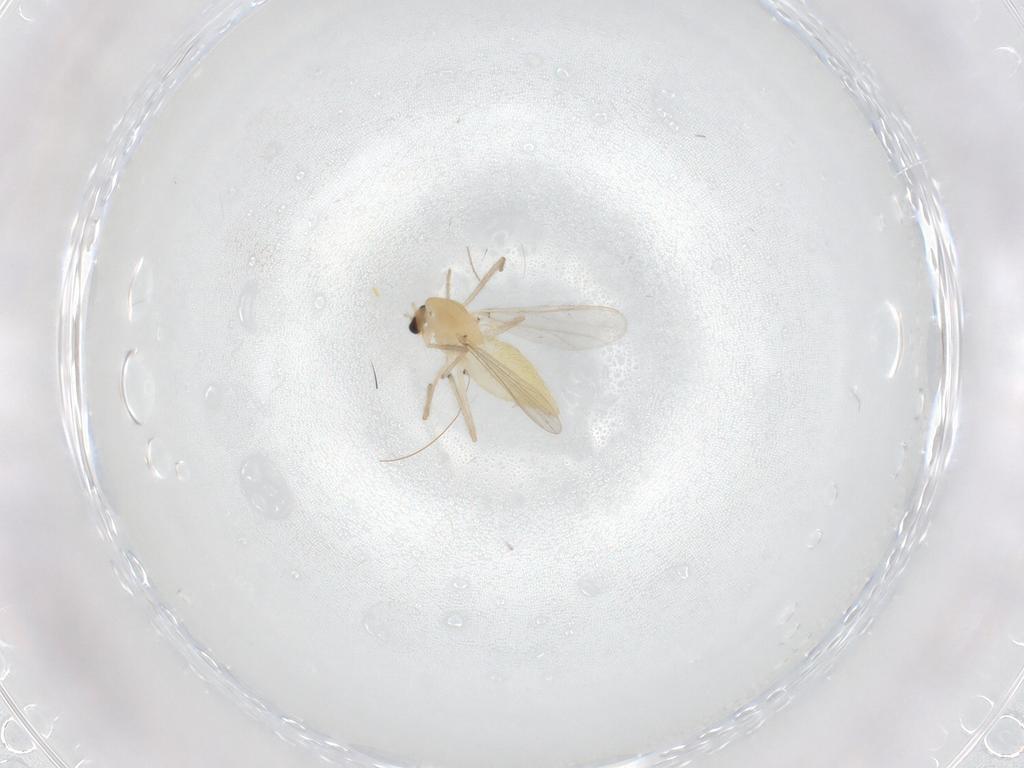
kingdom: Animalia
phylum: Arthropoda
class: Insecta
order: Diptera
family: Chironomidae
